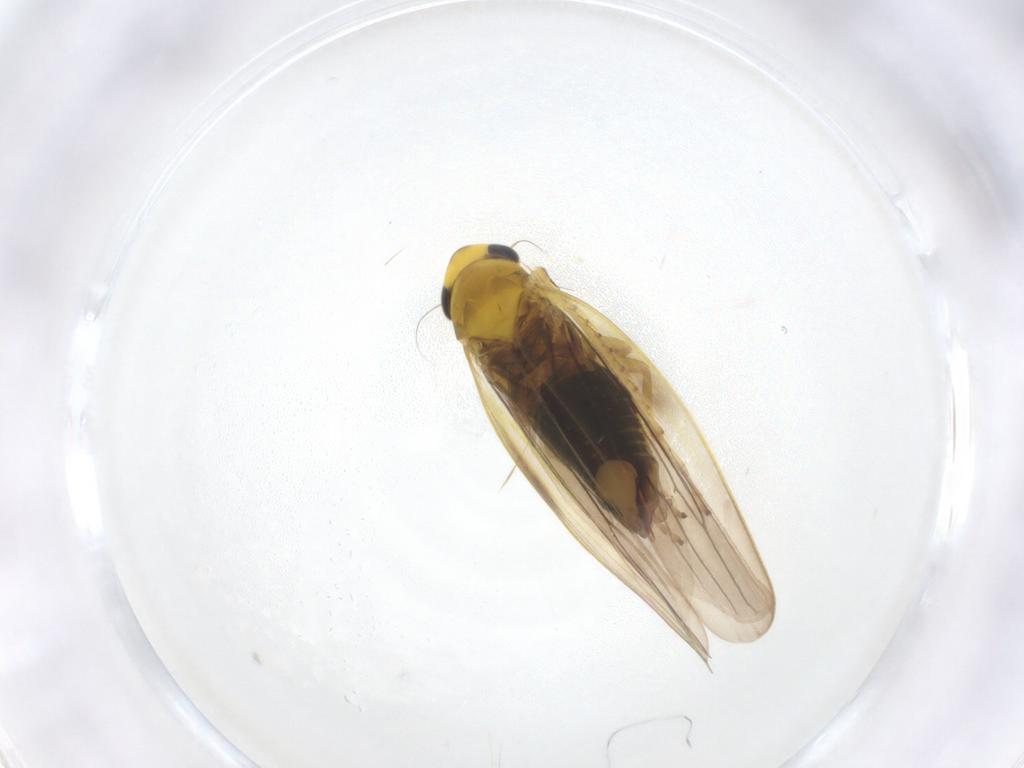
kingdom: Animalia
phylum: Arthropoda
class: Insecta
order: Hemiptera
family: Cicadellidae
